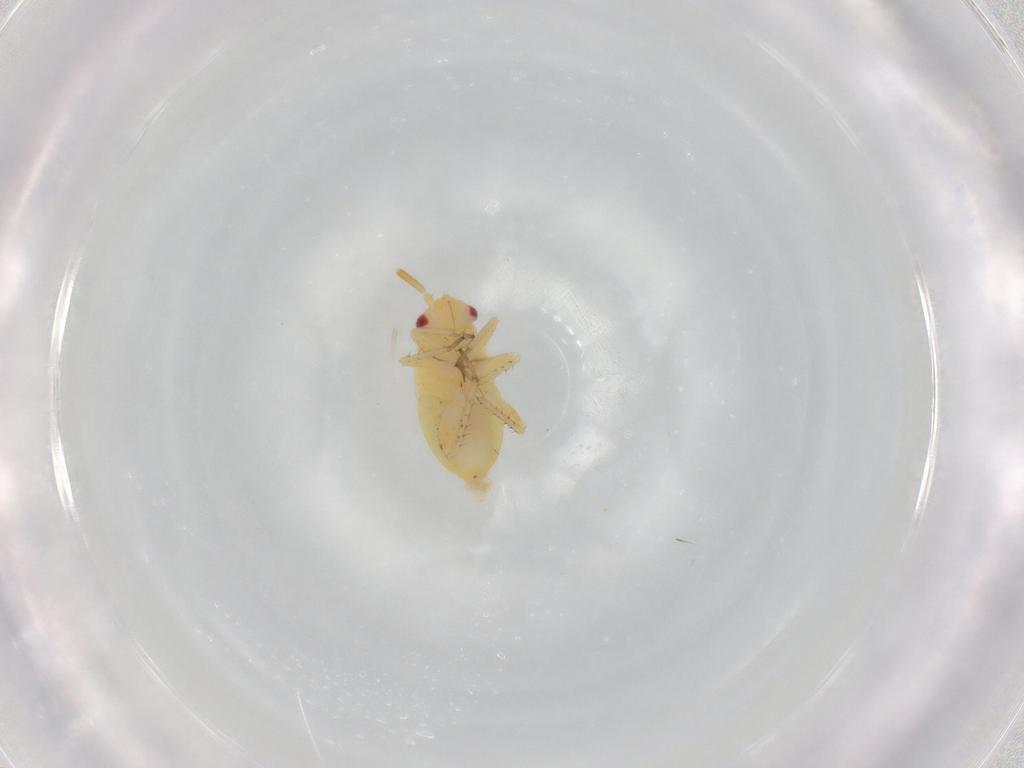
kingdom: Animalia
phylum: Arthropoda
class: Insecta
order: Hemiptera
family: Miridae
